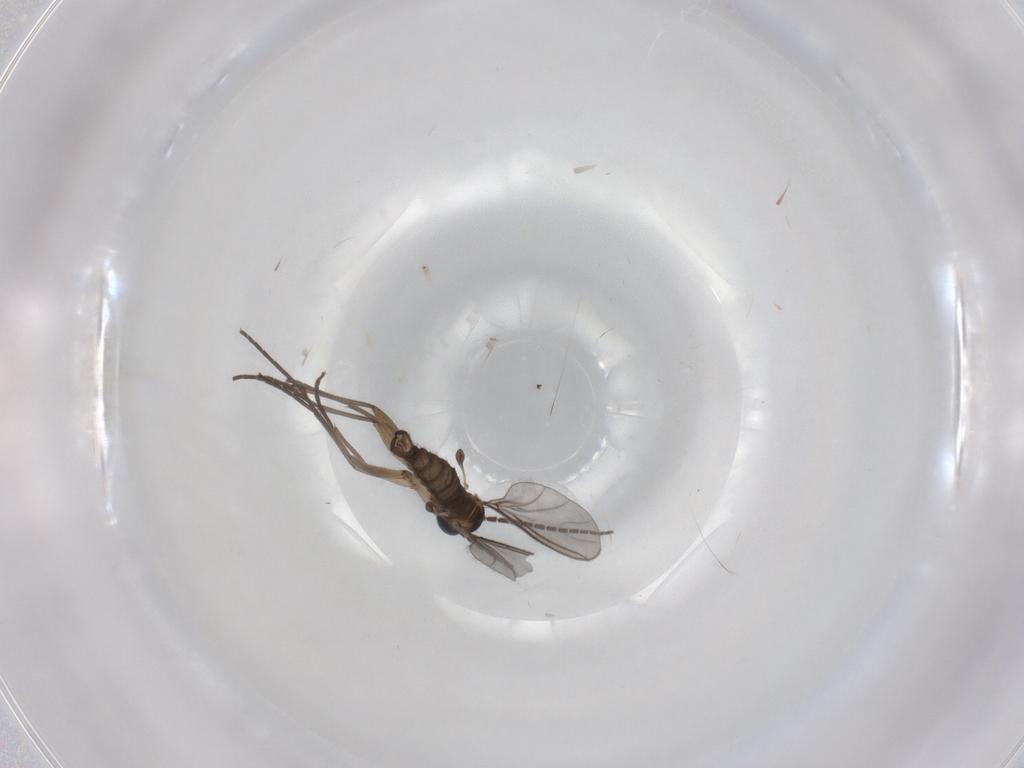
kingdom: Animalia
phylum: Arthropoda
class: Insecta
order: Diptera
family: Sciaridae
